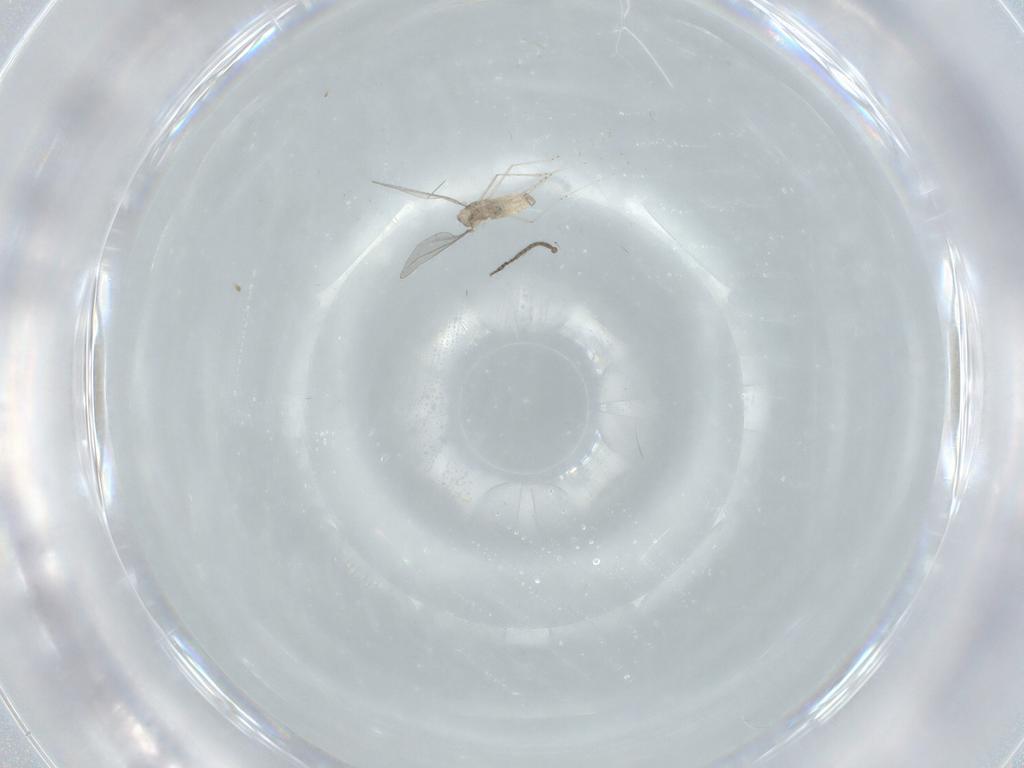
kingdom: Animalia
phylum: Arthropoda
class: Insecta
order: Diptera
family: Cecidomyiidae
